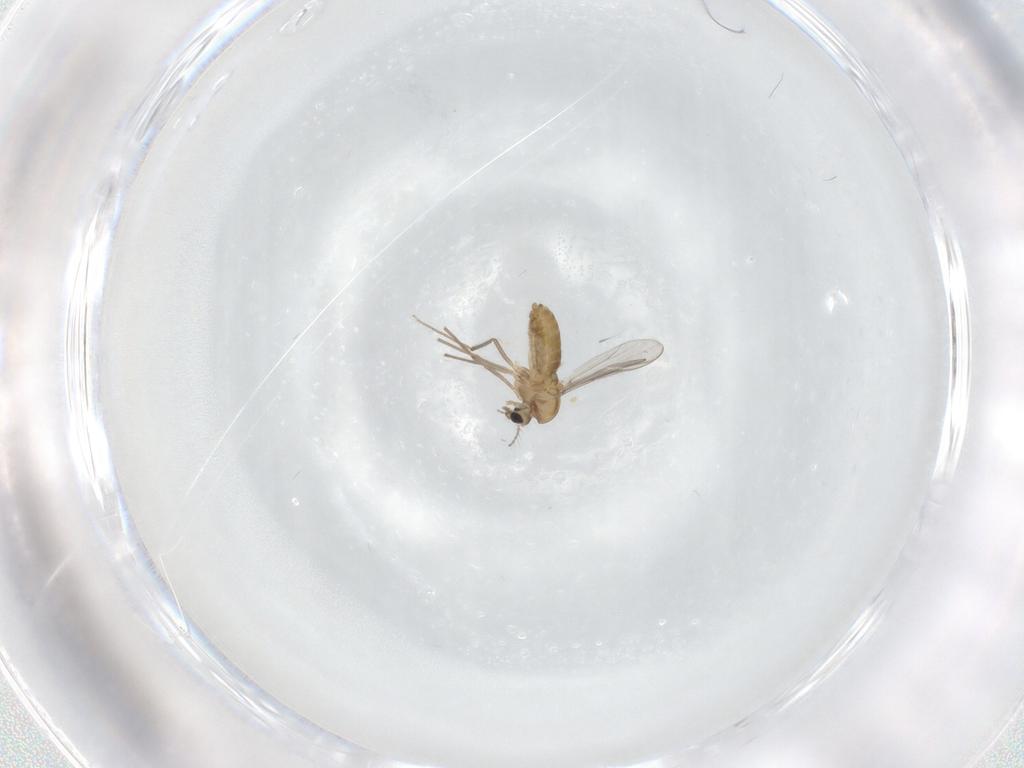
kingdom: Animalia
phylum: Arthropoda
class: Insecta
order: Diptera
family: Chironomidae
